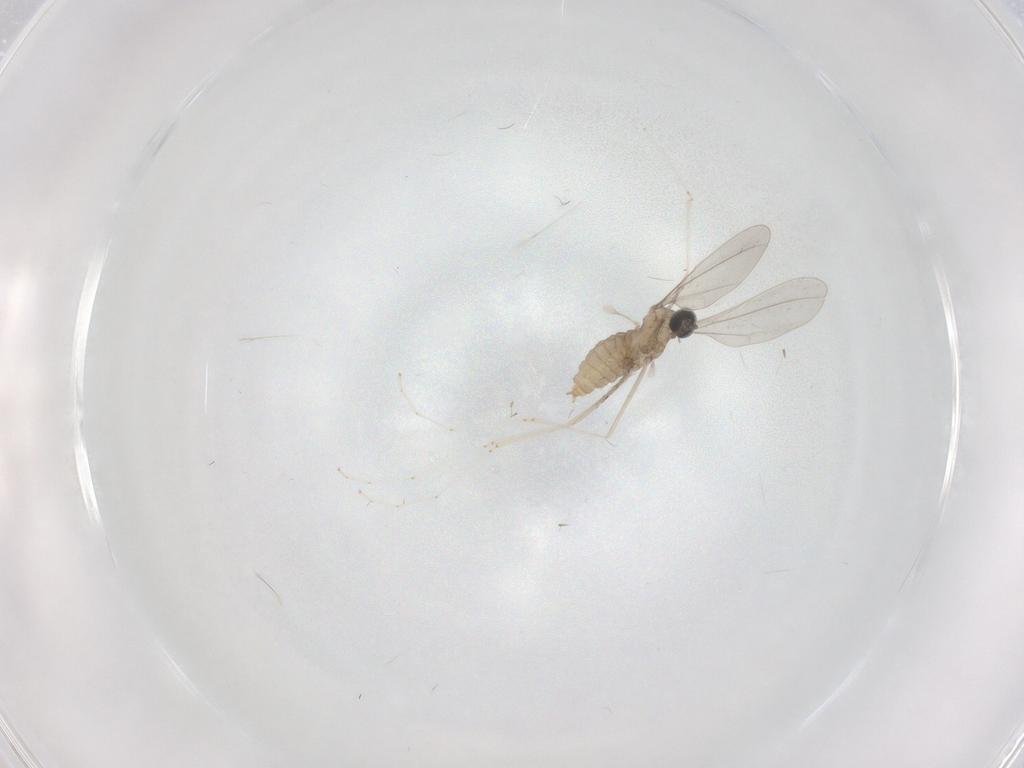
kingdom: Animalia
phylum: Arthropoda
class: Insecta
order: Diptera
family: Cecidomyiidae
